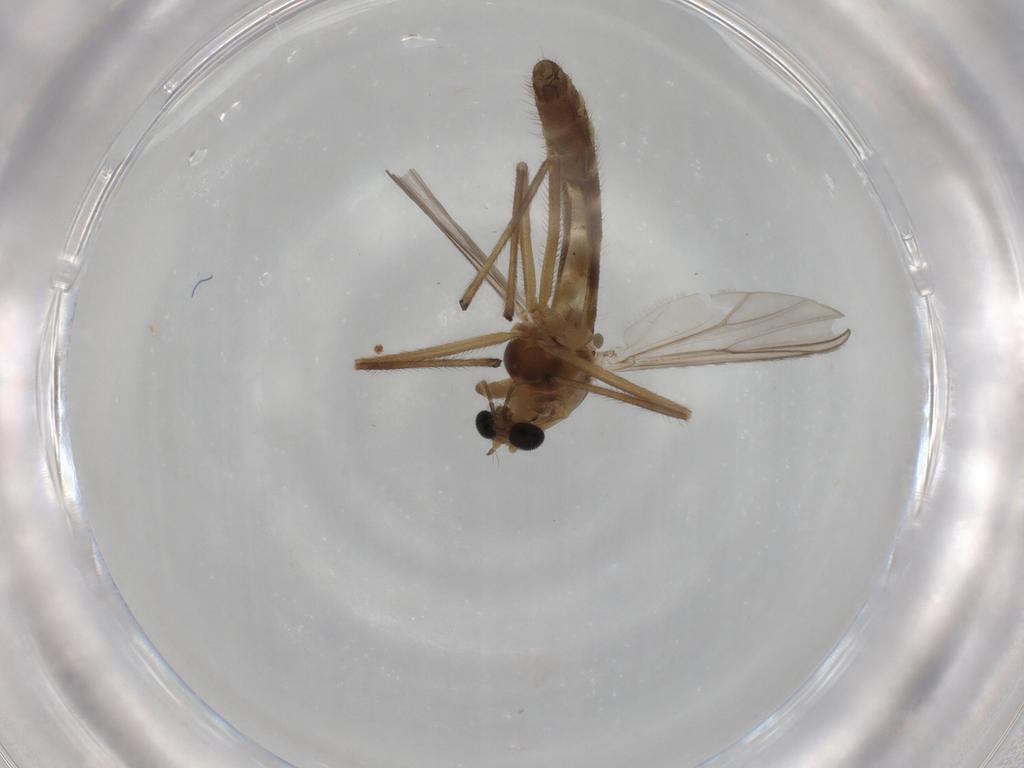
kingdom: Animalia
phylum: Arthropoda
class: Insecta
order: Diptera
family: Chironomidae
